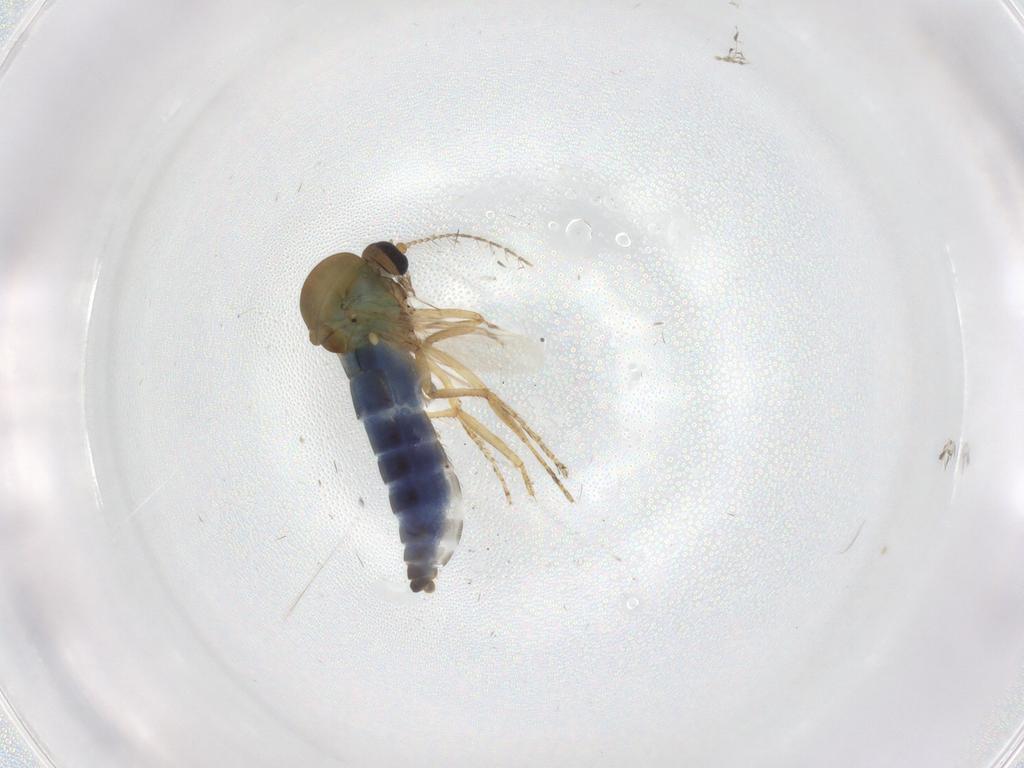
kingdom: Animalia
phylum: Arthropoda
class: Insecta
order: Diptera
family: Ceratopogonidae
